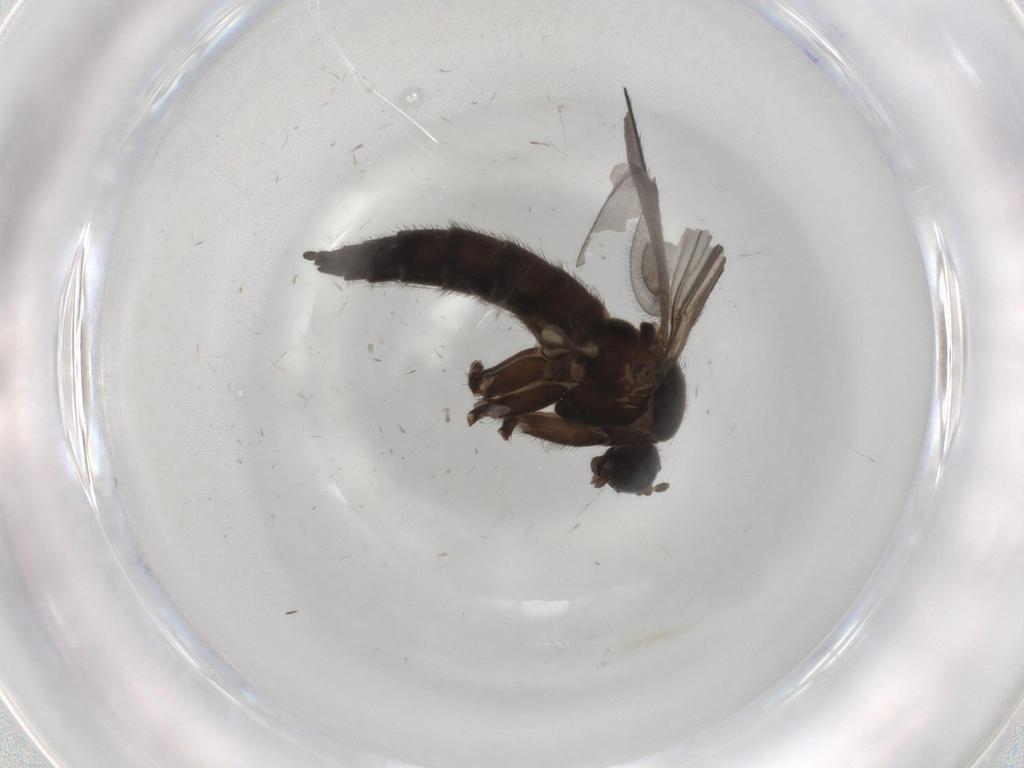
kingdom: Animalia
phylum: Arthropoda
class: Insecta
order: Diptera
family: Sciaridae
